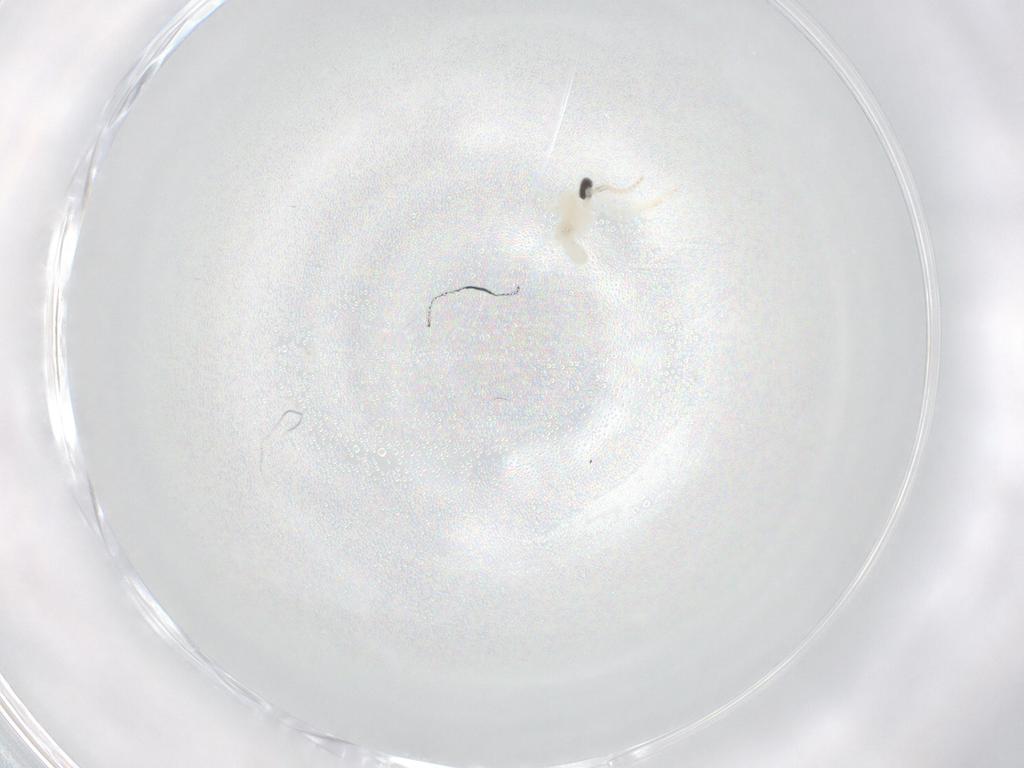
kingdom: Animalia
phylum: Arthropoda
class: Insecta
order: Diptera
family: Cecidomyiidae
